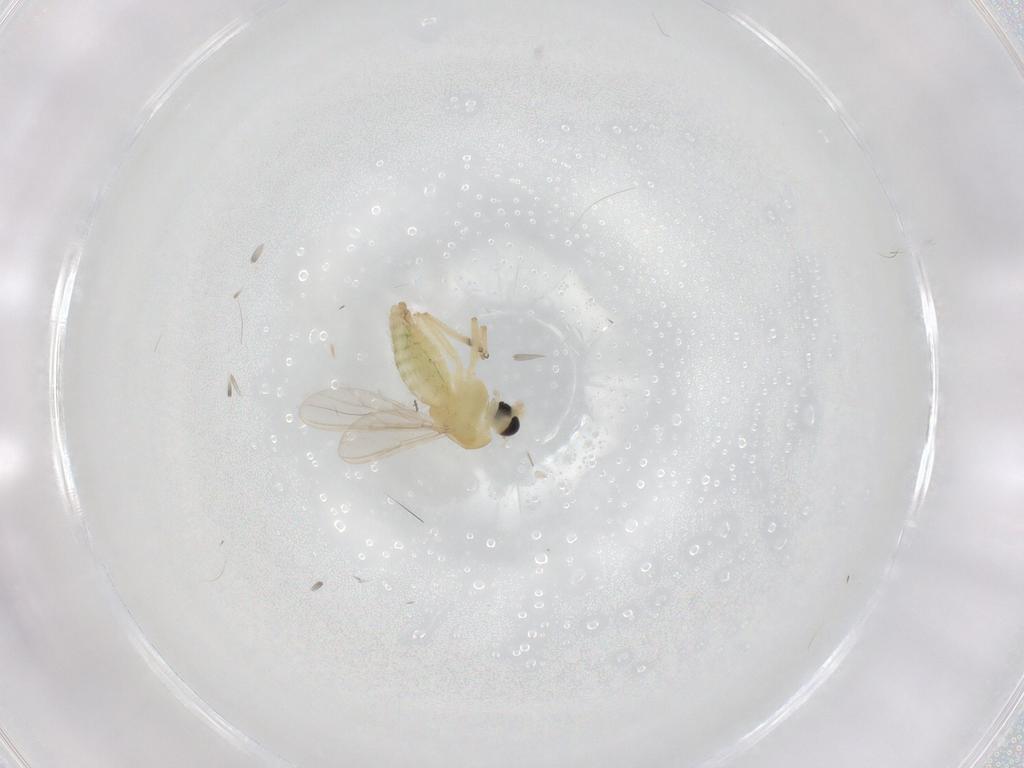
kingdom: Animalia
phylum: Arthropoda
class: Insecta
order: Diptera
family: Chironomidae
